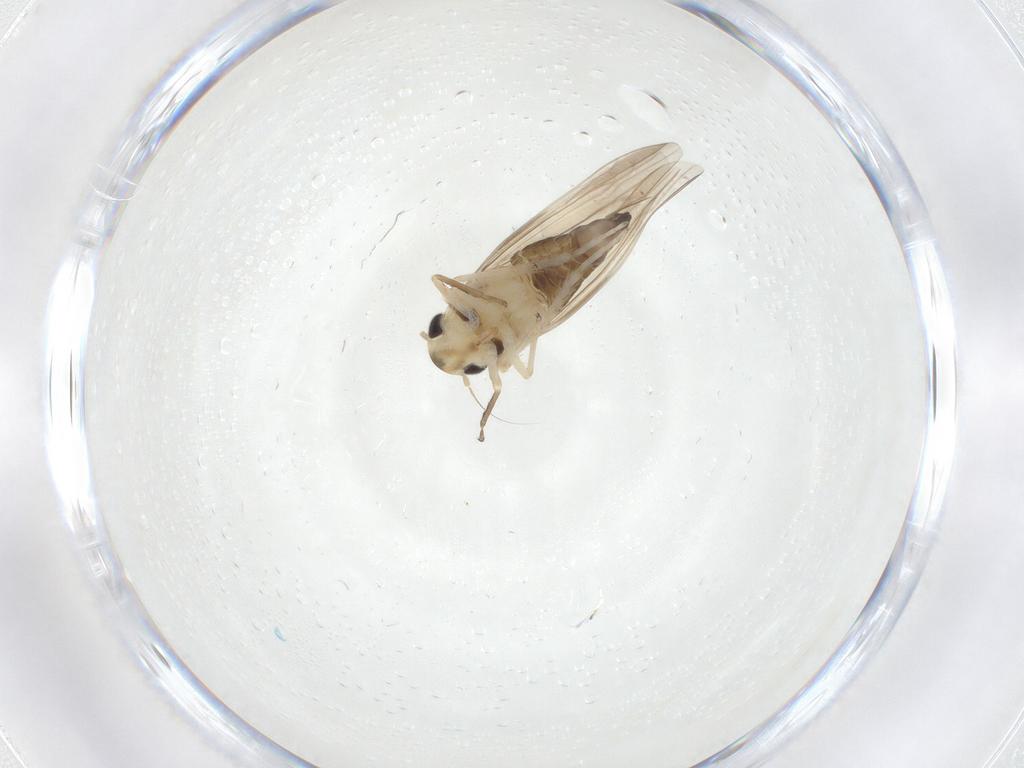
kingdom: Animalia
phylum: Arthropoda
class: Insecta
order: Hemiptera
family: Cicadellidae
